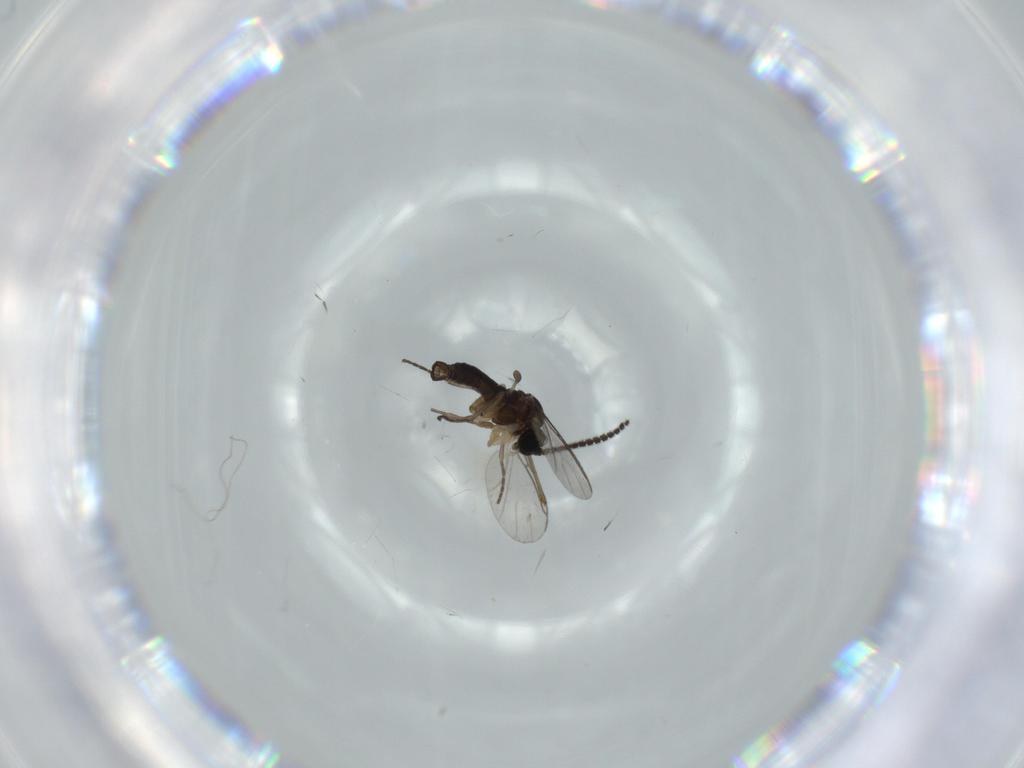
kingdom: Animalia
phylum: Arthropoda
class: Insecta
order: Diptera
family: Sciaridae
